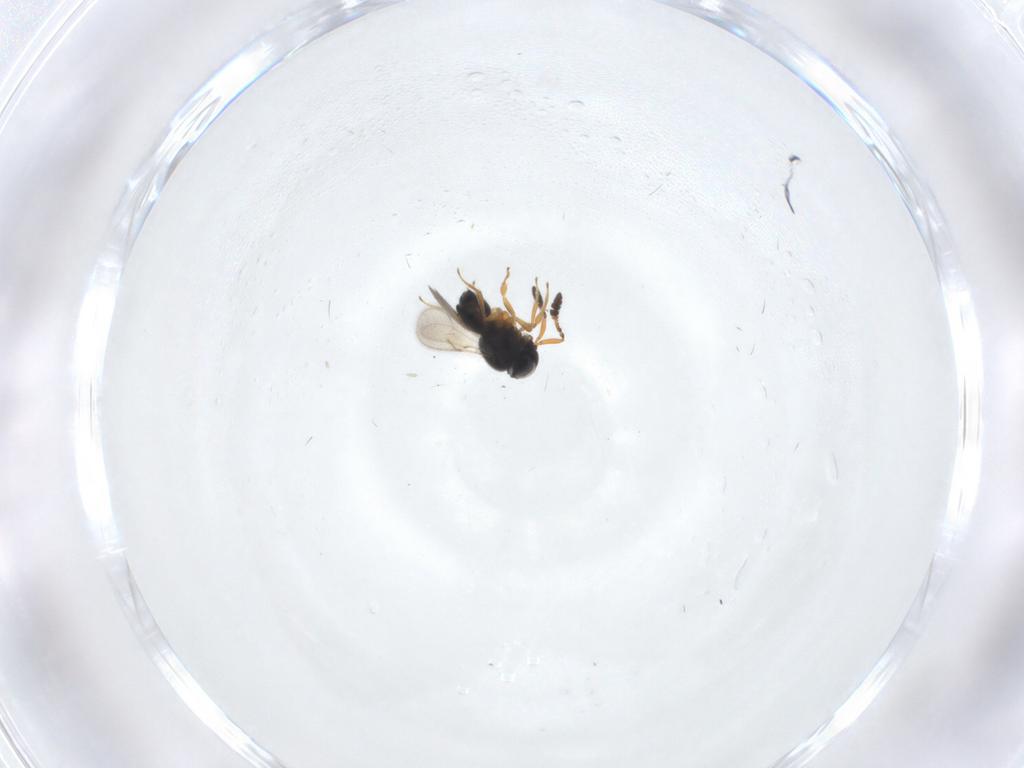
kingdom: Animalia
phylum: Arthropoda
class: Insecta
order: Hymenoptera
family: Scelionidae
